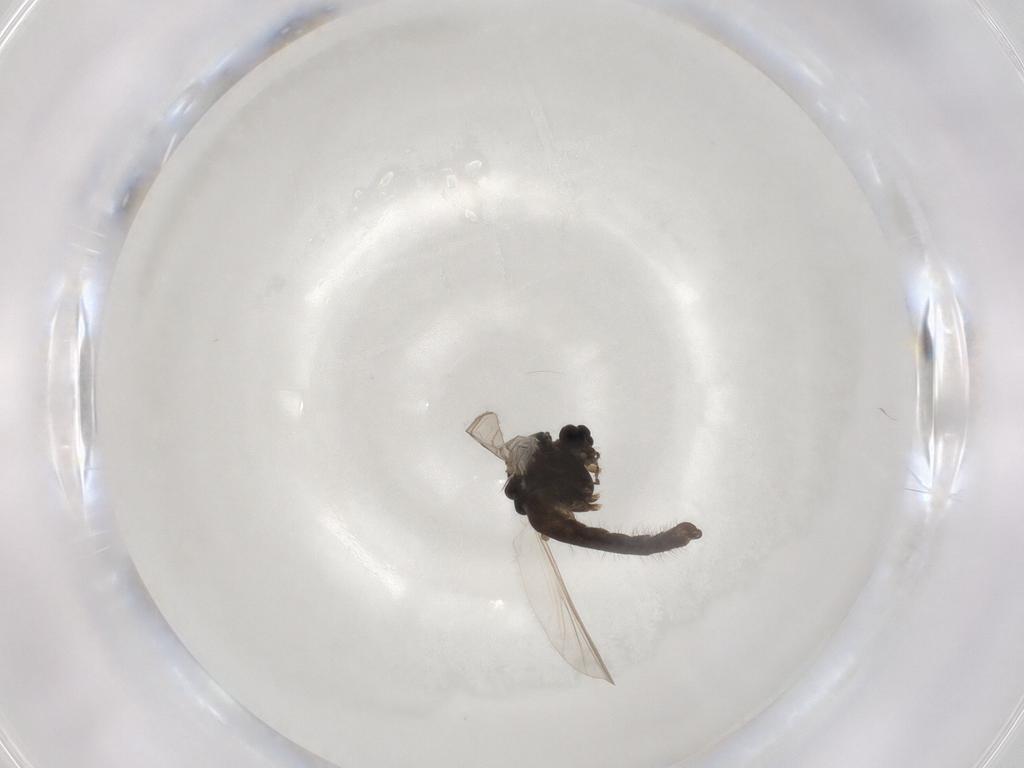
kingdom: Animalia
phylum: Arthropoda
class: Insecta
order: Diptera
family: Chironomidae
